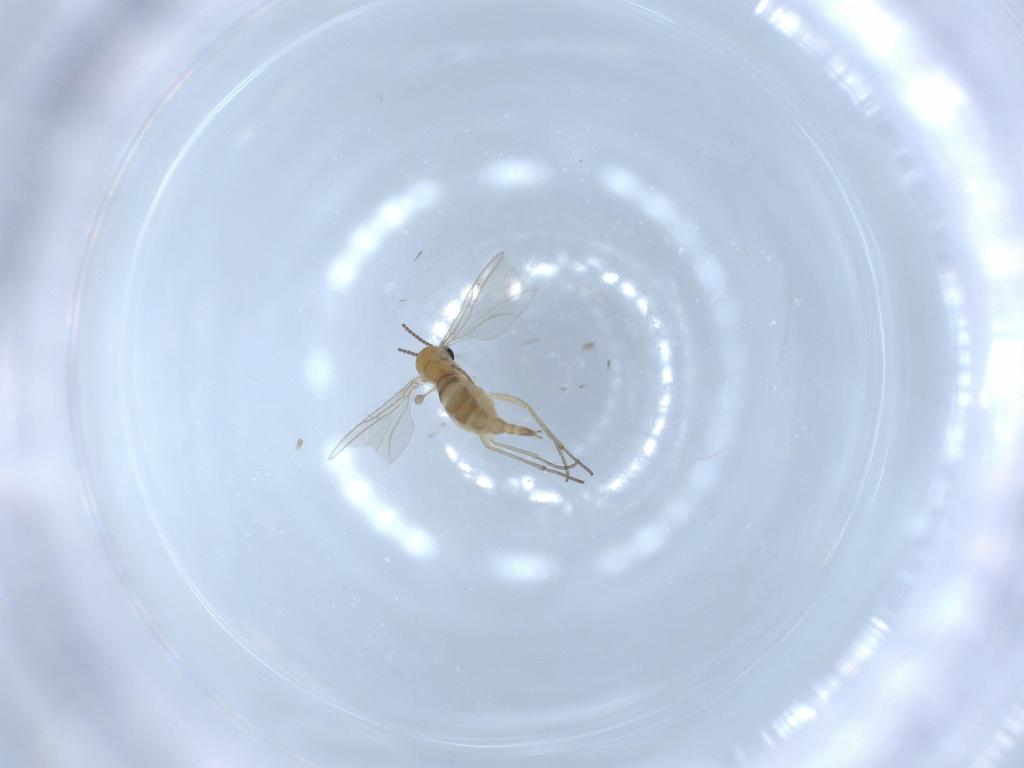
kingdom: Animalia
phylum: Arthropoda
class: Insecta
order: Diptera
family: Sciaridae
